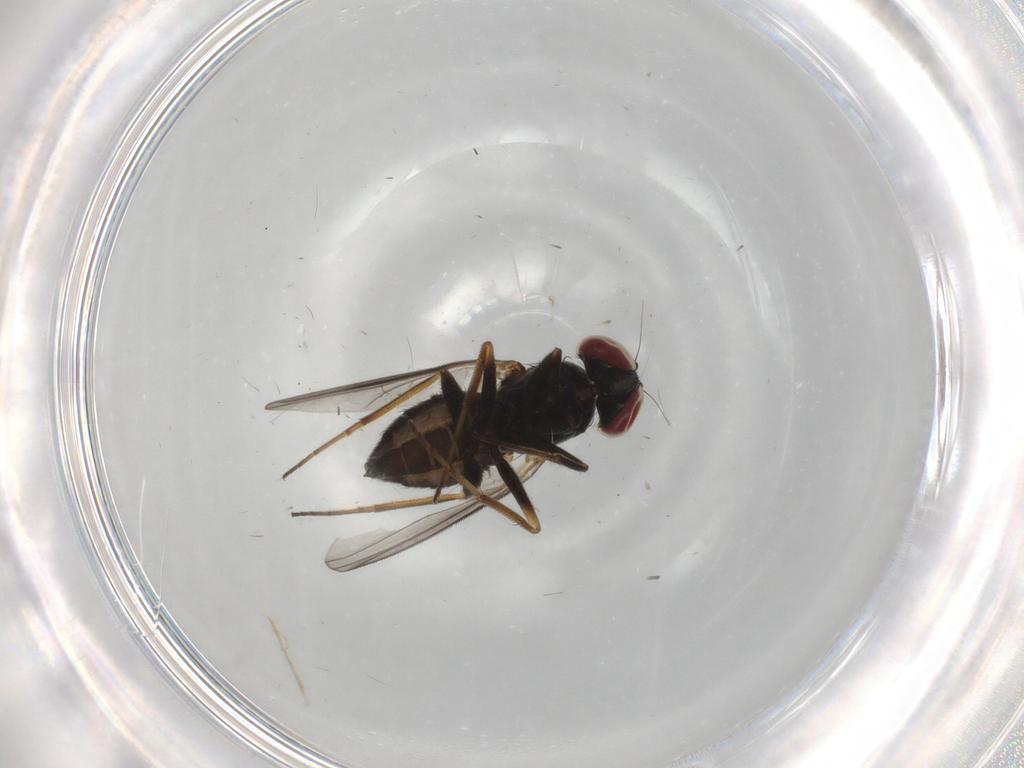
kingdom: Animalia
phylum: Arthropoda
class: Insecta
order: Diptera
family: Dolichopodidae
